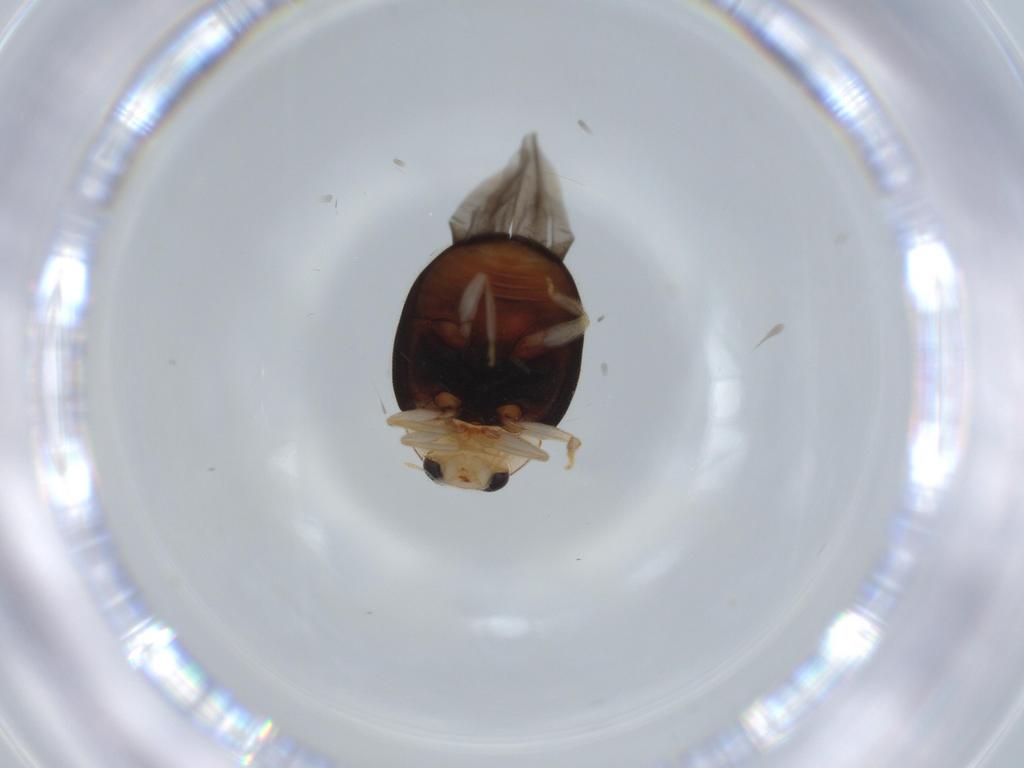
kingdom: Animalia
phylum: Arthropoda
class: Insecta
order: Coleoptera
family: Coccinellidae
